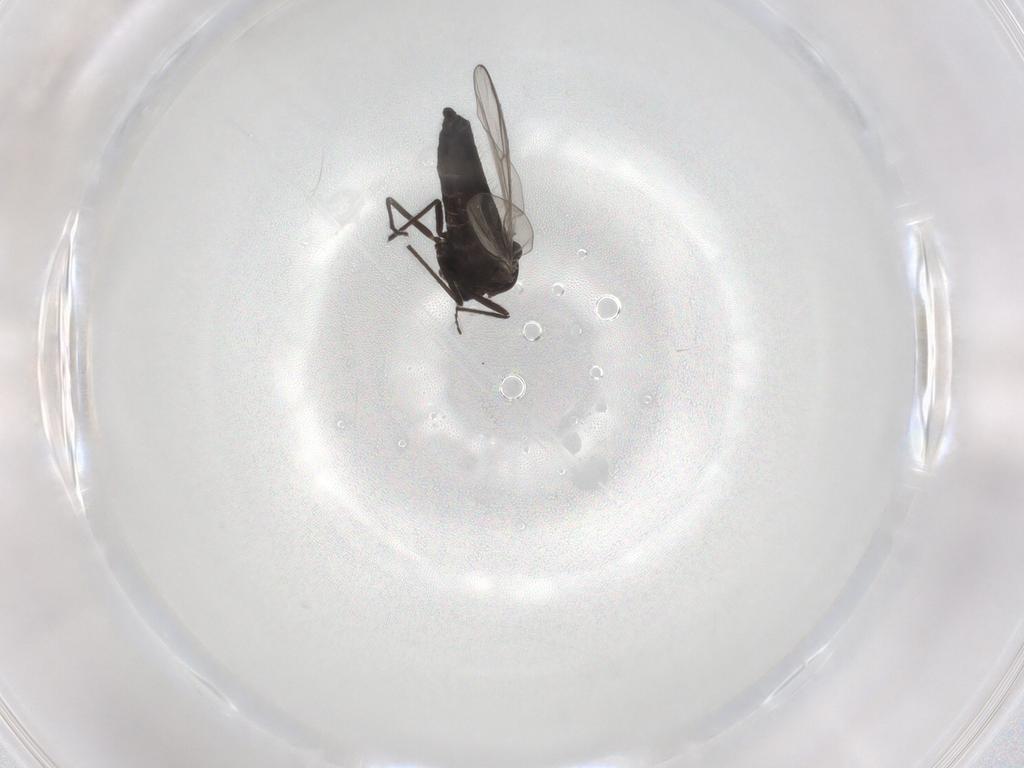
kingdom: Animalia
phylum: Arthropoda
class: Insecta
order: Diptera
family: Chironomidae
